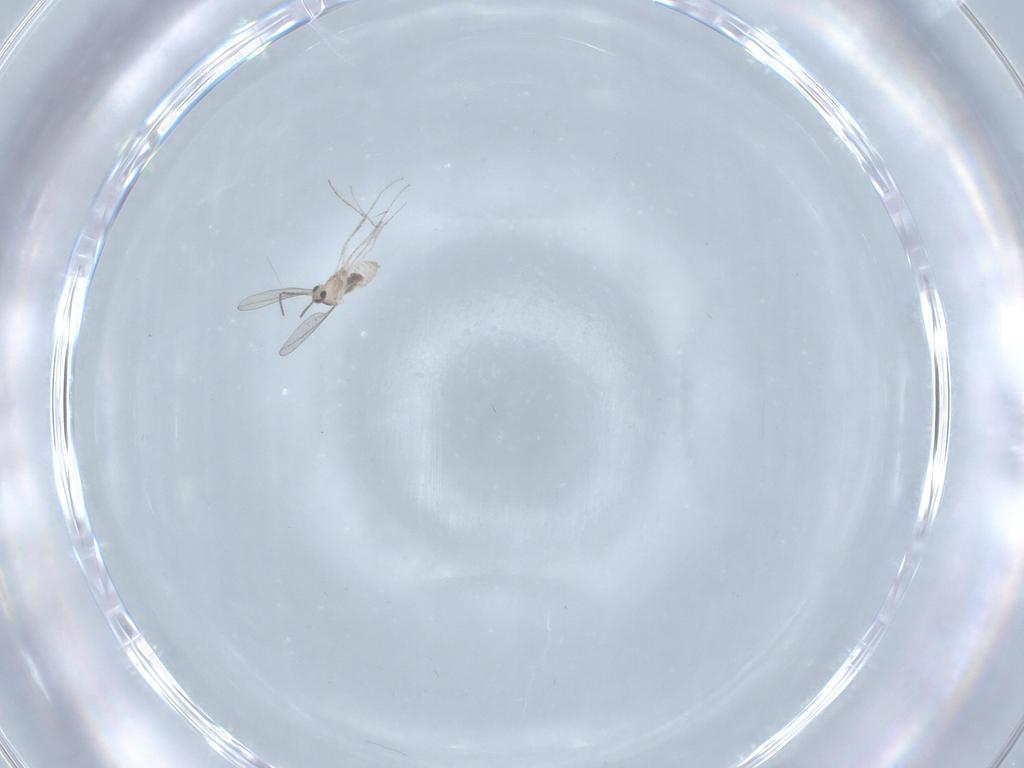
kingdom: Animalia
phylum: Arthropoda
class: Insecta
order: Diptera
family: Cecidomyiidae
